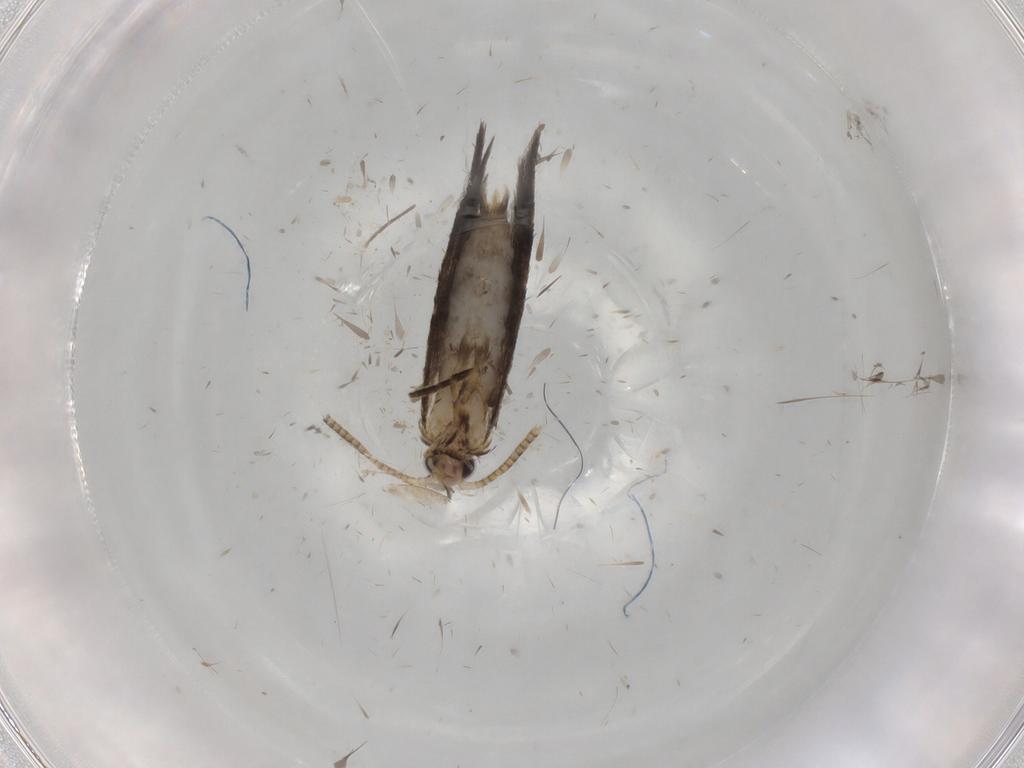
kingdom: Animalia
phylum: Arthropoda
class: Insecta
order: Lepidoptera
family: Tineidae
